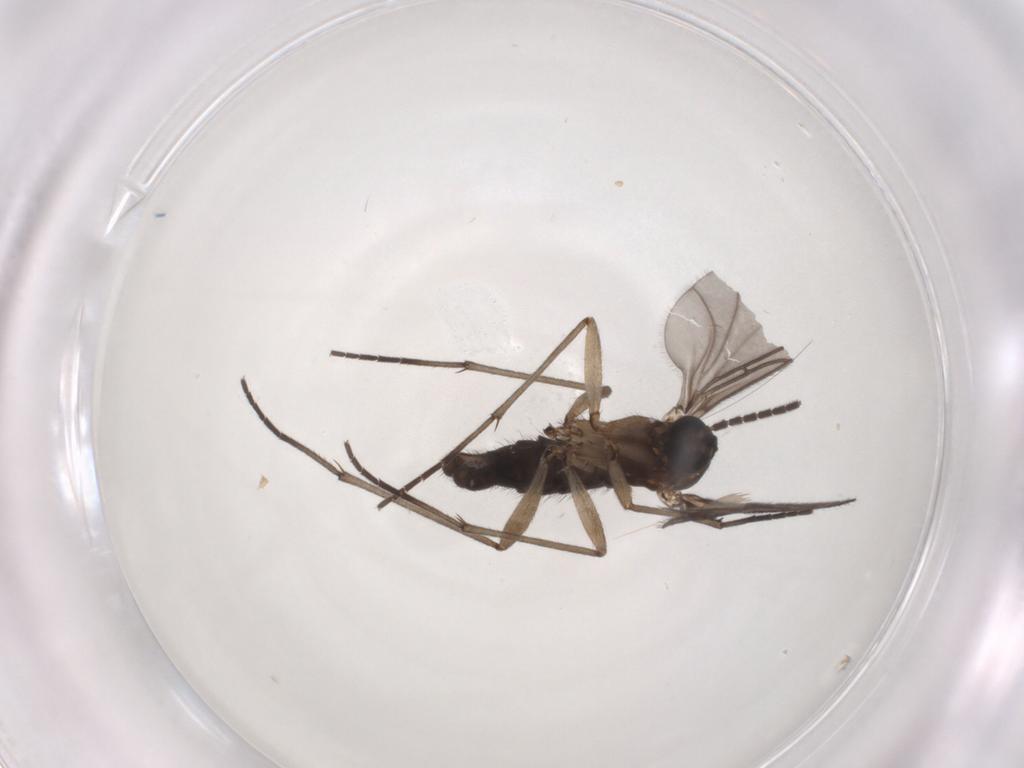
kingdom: Animalia
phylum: Arthropoda
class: Insecta
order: Diptera
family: Sciaridae
